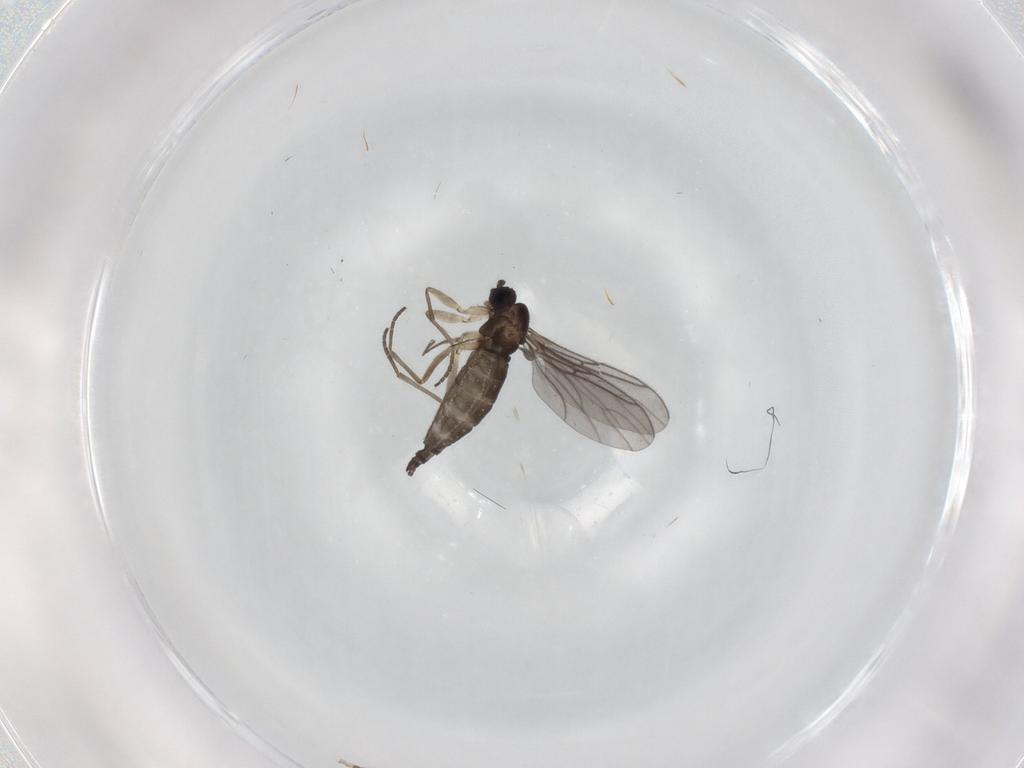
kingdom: Animalia
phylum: Arthropoda
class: Insecta
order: Diptera
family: Sciaridae
